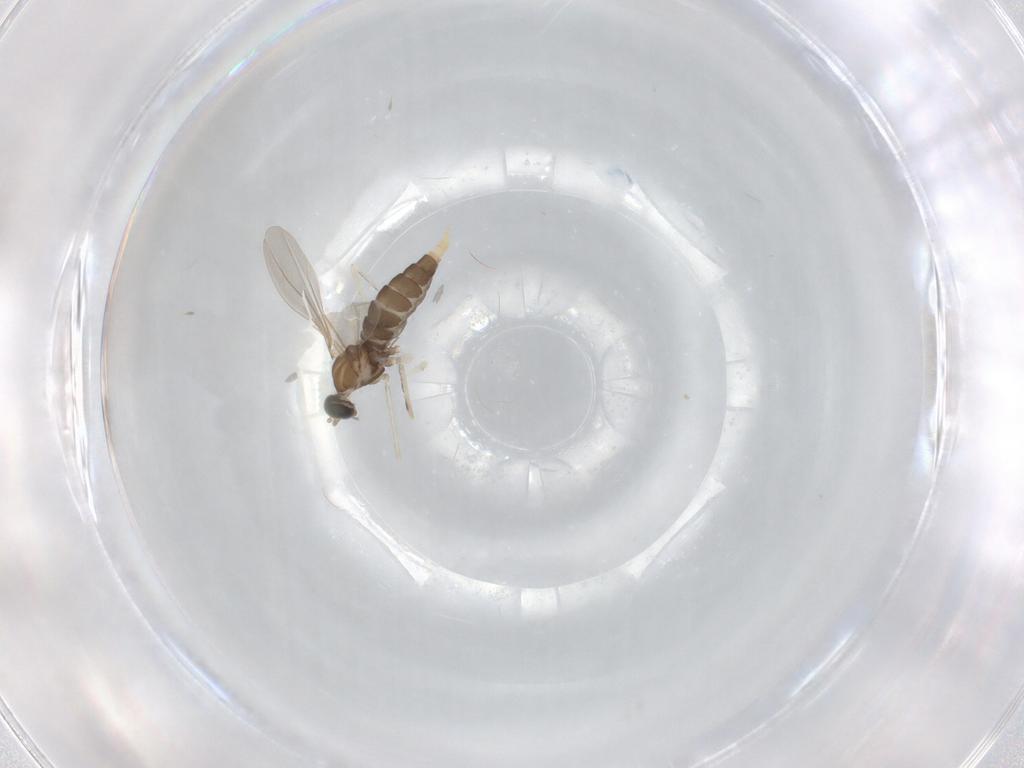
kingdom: Animalia
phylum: Arthropoda
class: Insecta
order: Diptera
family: Cecidomyiidae
